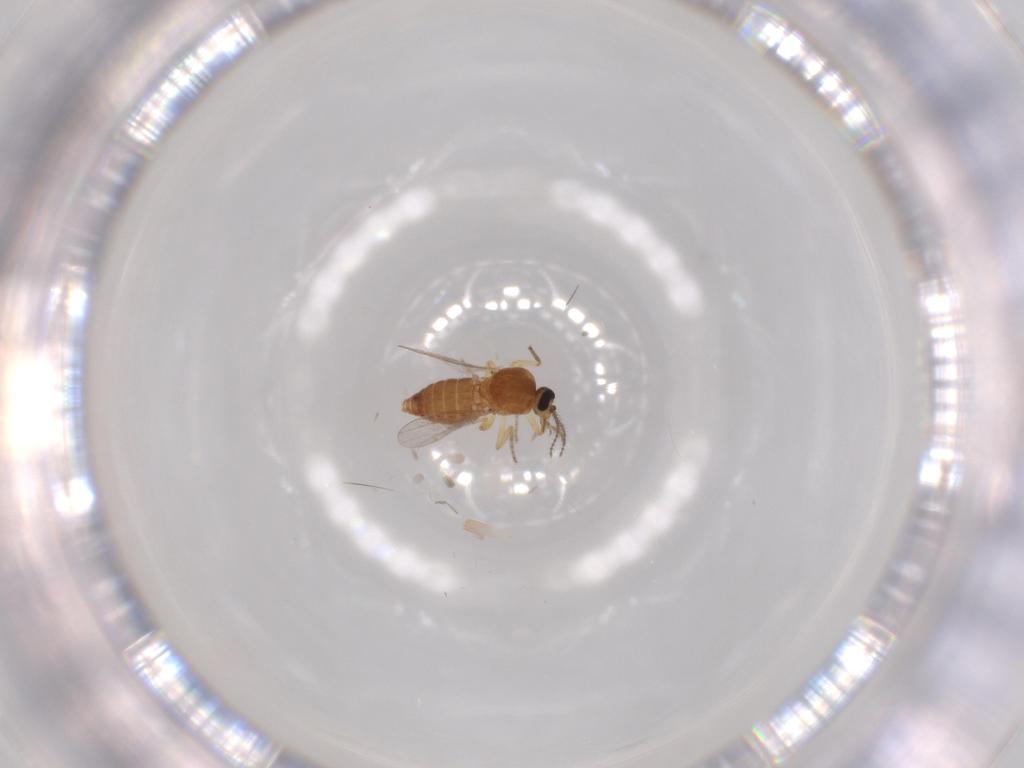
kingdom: Animalia
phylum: Arthropoda
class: Insecta
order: Diptera
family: Ceratopogonidae
